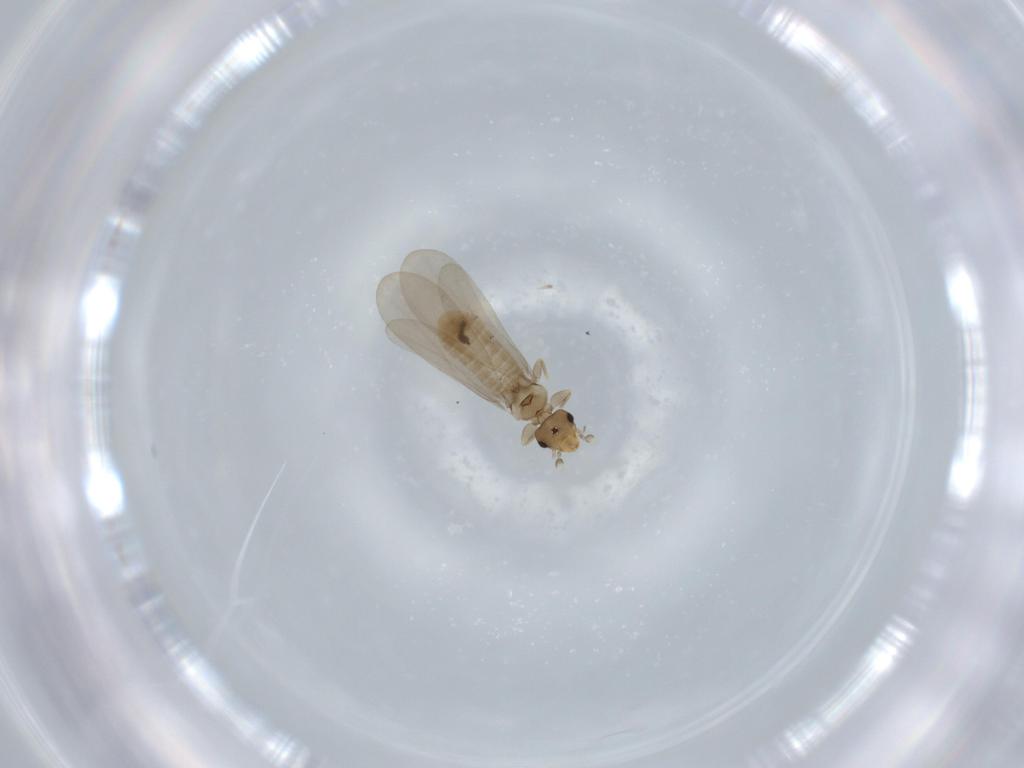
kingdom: Animalia
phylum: Arthropoda
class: Insecta
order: Psocodea
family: Liposcelididae
